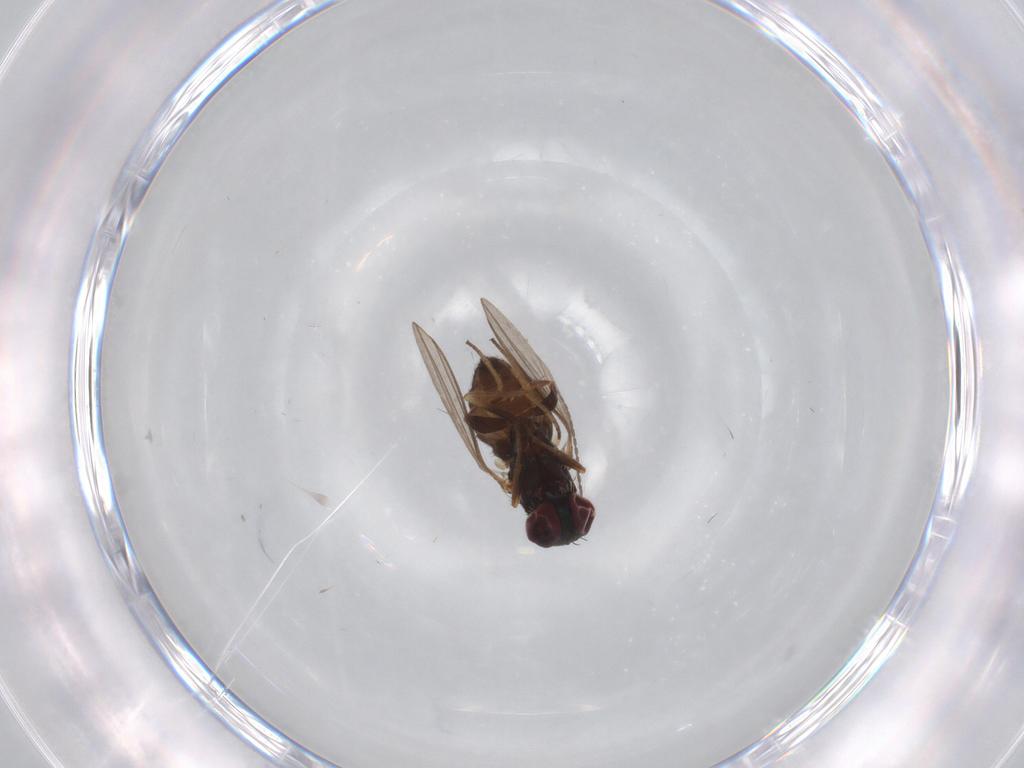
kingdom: Animalia
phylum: Arthropoda
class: Insecta
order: Diptera
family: Dolichopodidae
